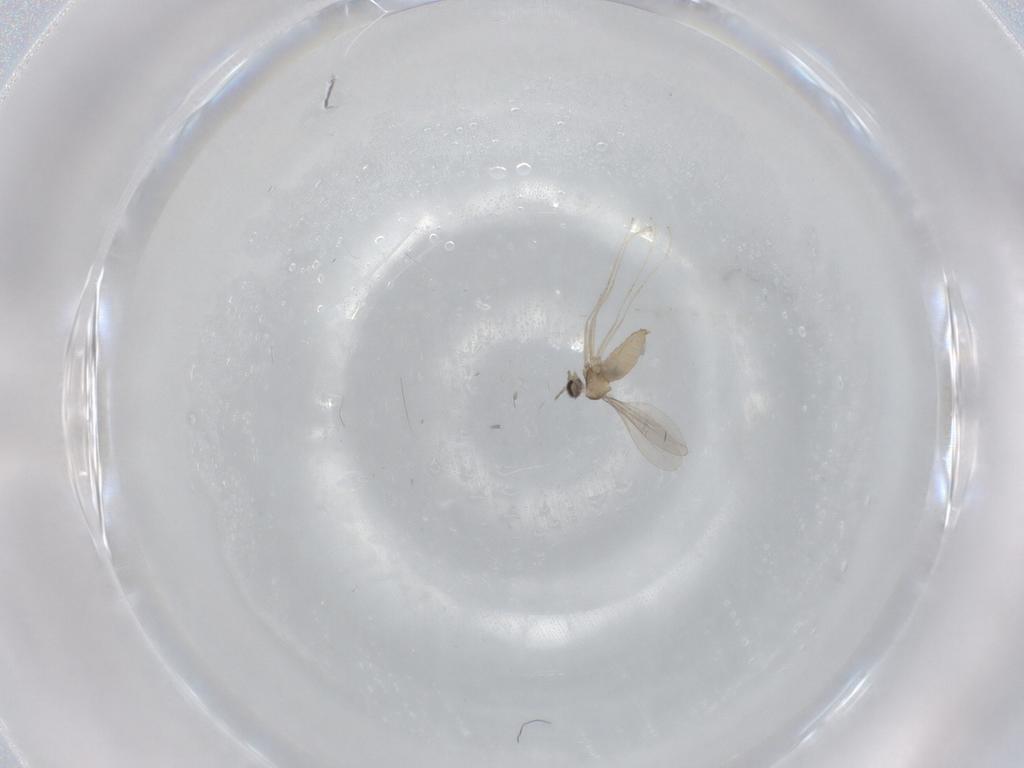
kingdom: Animalia
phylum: Arthropoda
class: Insecta
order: Diptera
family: Cecidomyiidae
